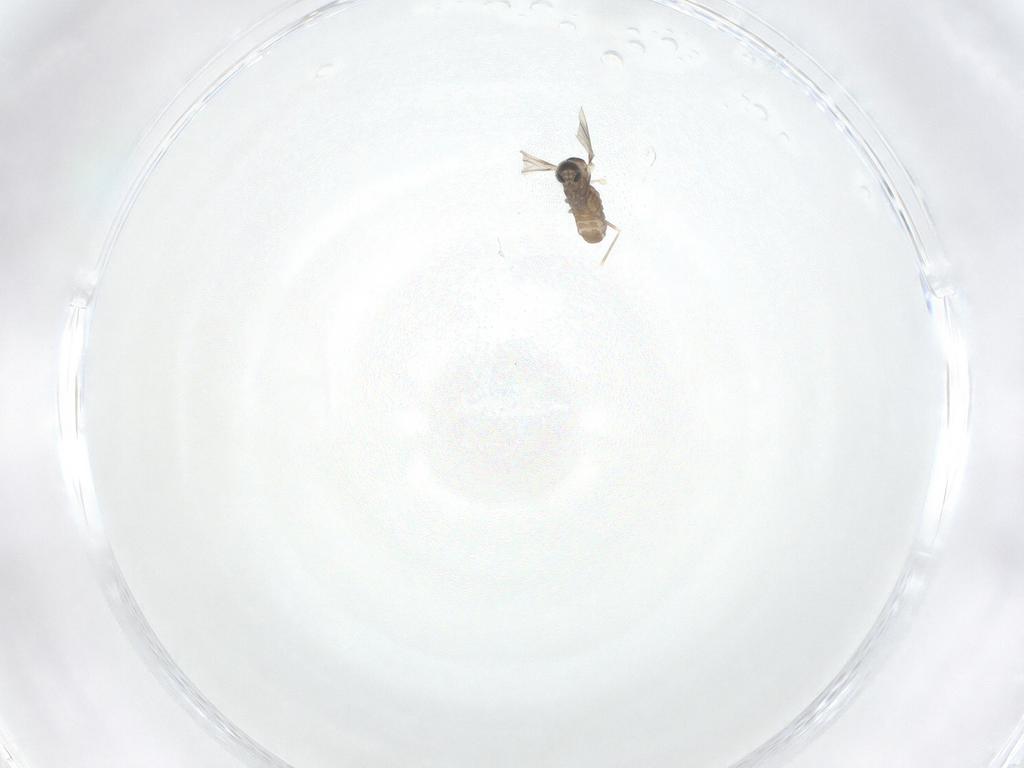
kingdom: Animalia
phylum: Arthropoda
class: Insecta
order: Diptera
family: Cecidomyiidae
